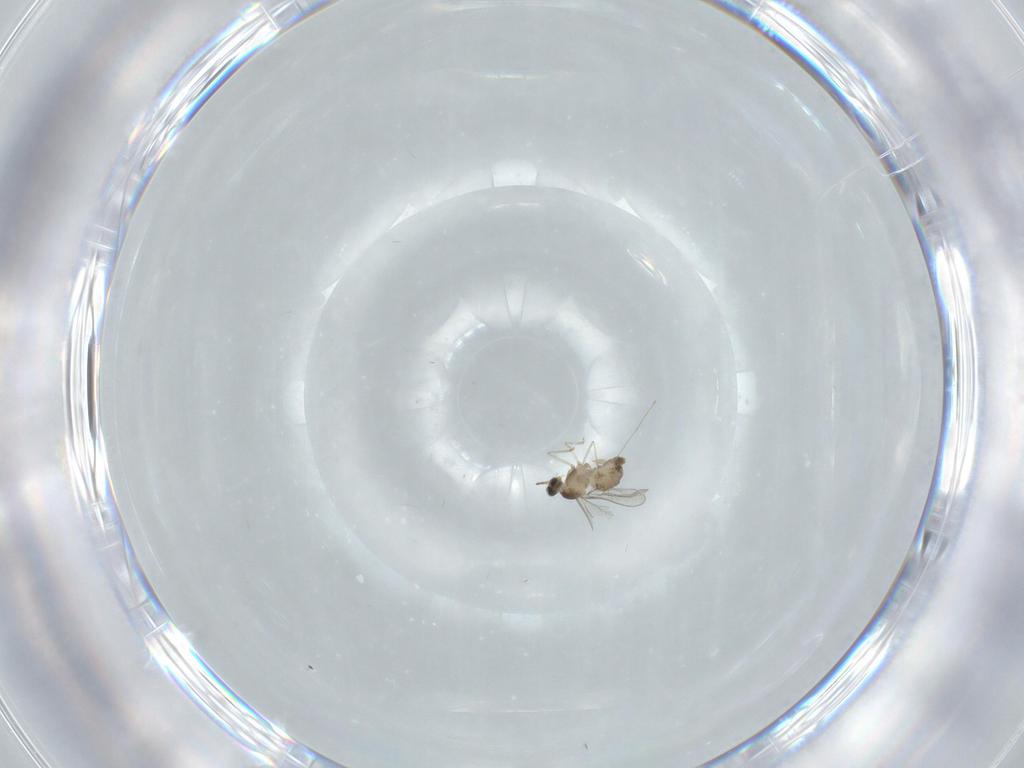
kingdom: Animalia
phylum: Arthropoda
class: Insecta
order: Diptera
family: Cecidomyiidae
